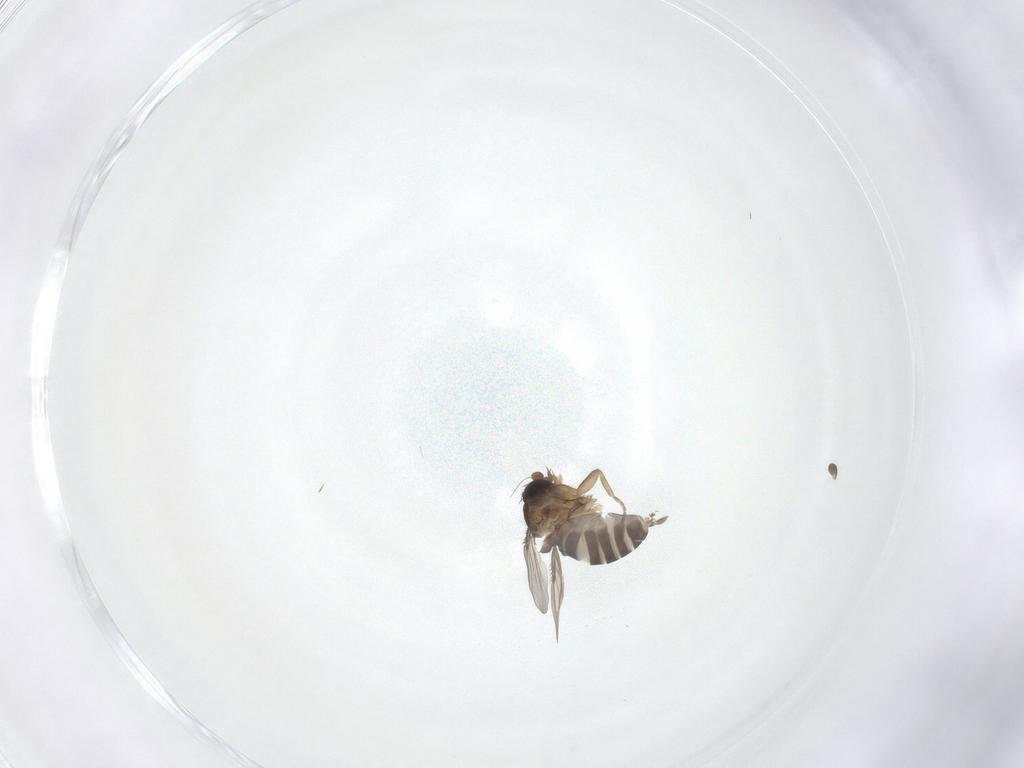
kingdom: Animalia
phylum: Arthropoda
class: Insecta
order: Diptera
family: Phoridae
